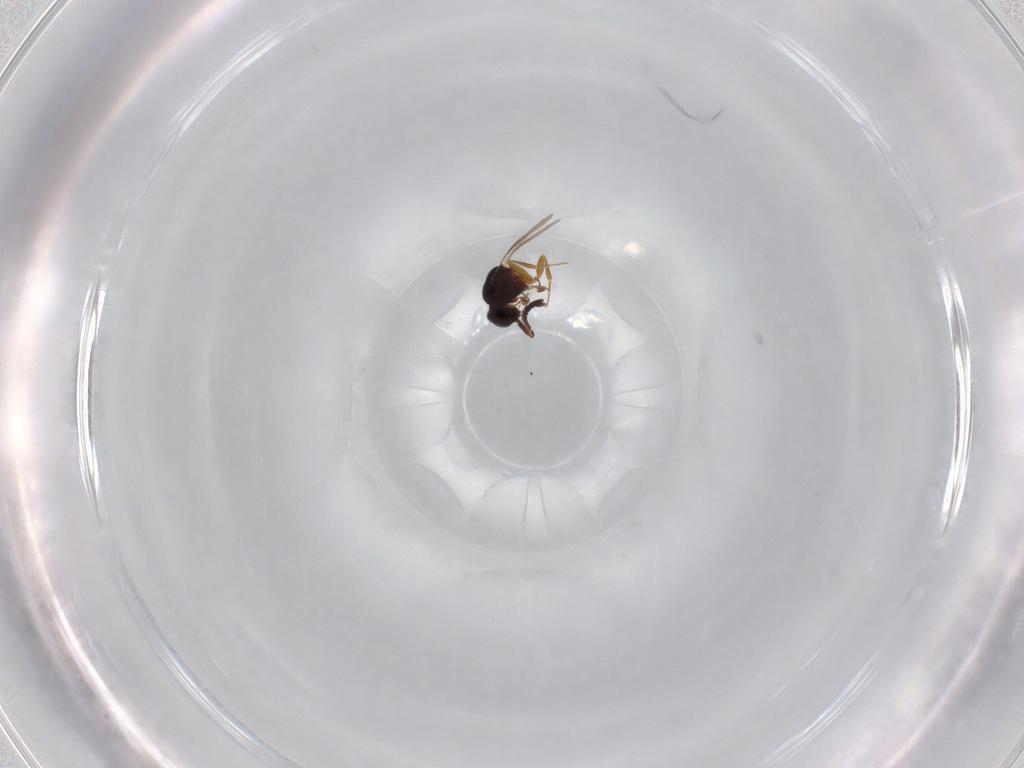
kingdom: Animalia
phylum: Arthropoda
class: Insecta
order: Hymenoptera
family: Ceraphronidae
